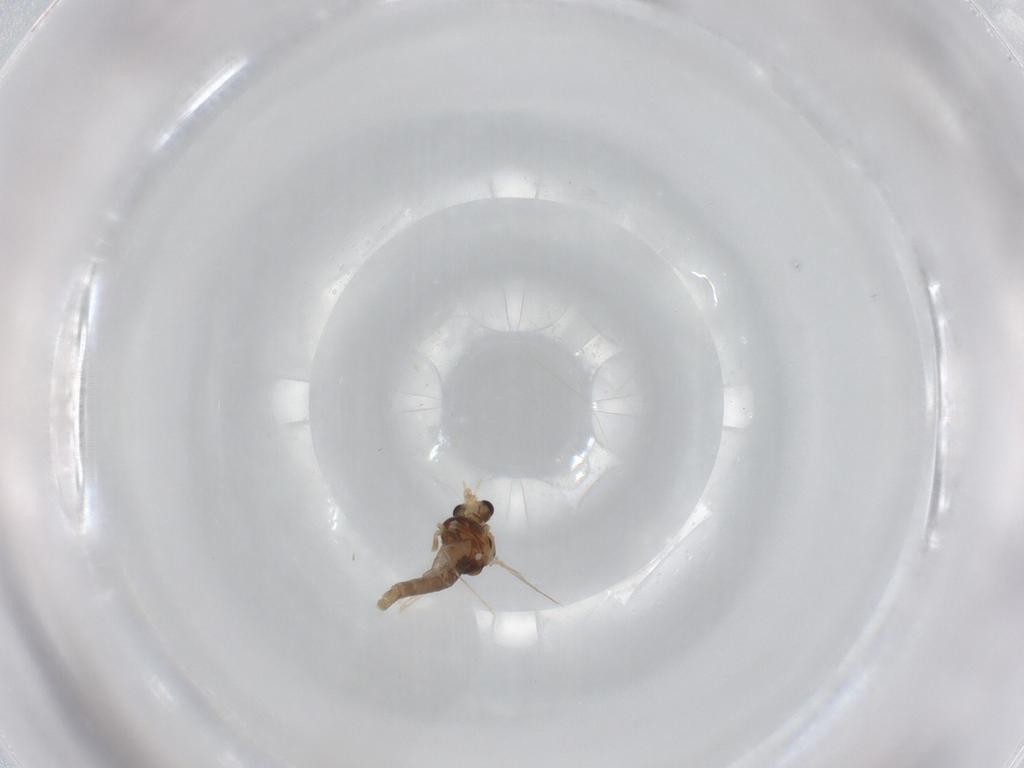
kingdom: Animalia
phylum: Arthropoda
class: Insecta
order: Diptera
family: Chironomidae
